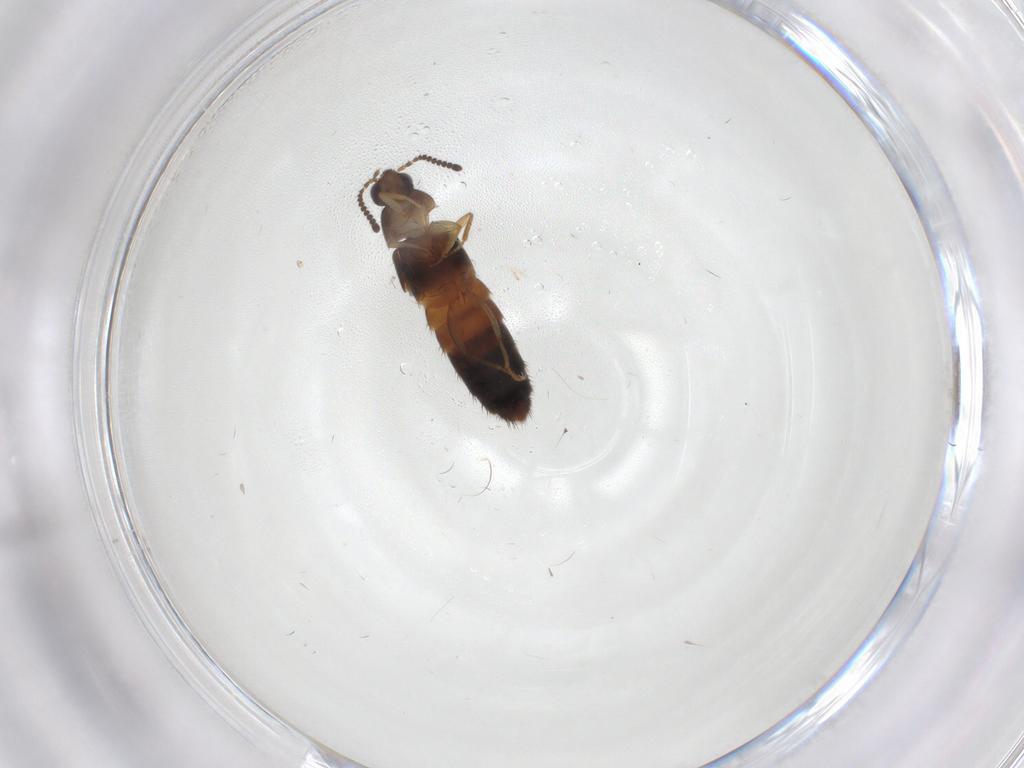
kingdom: Animalia
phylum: Arthropoda
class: Insecta
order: Coleoptera
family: Staphylinidae
